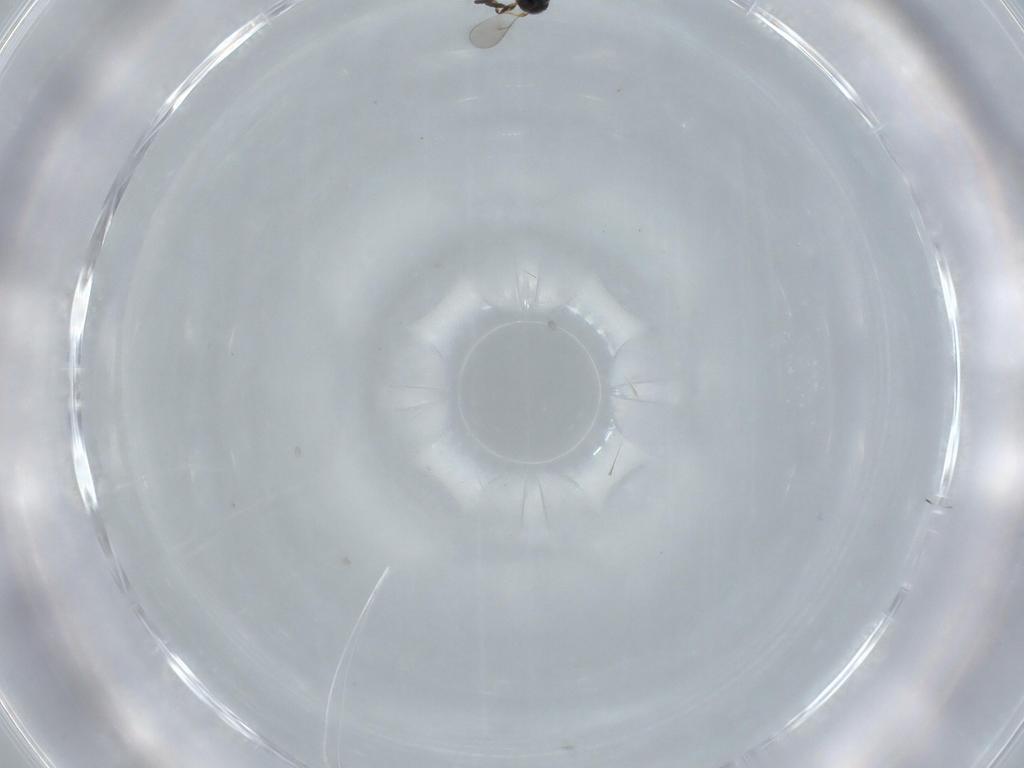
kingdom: Animalia
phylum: Arthropoda
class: Insecta
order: Hymenoptera
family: Scelionidae
